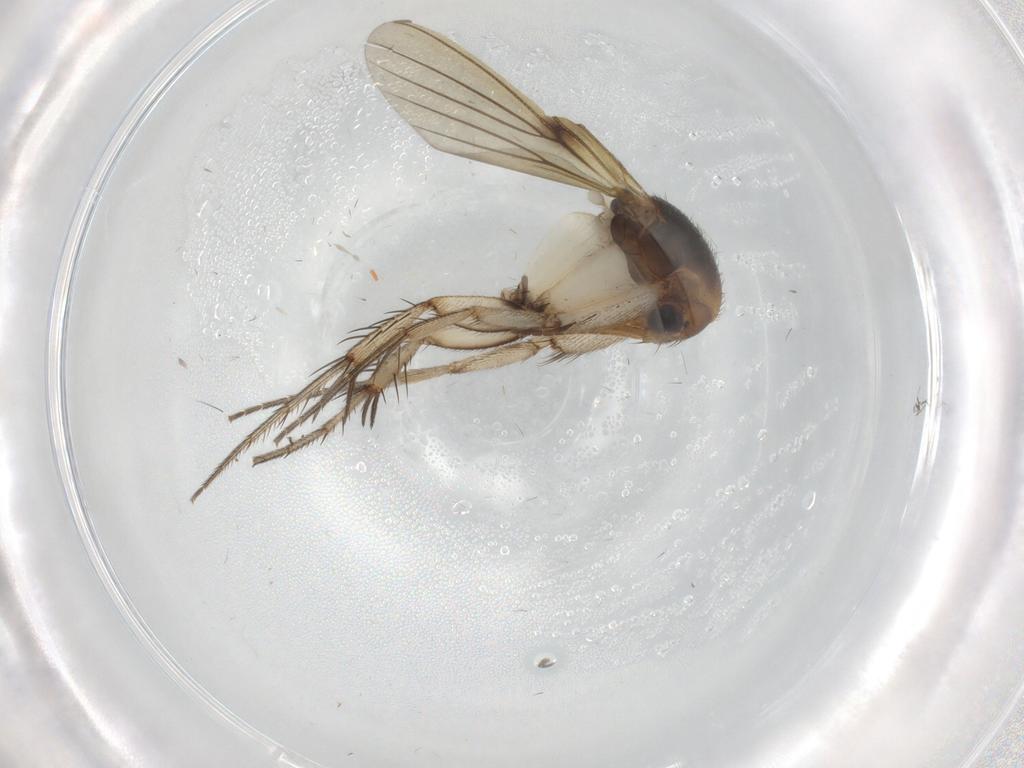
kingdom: Animalia
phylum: Arthropoda
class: Insecta
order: Diptera
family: Mycetophilidae
